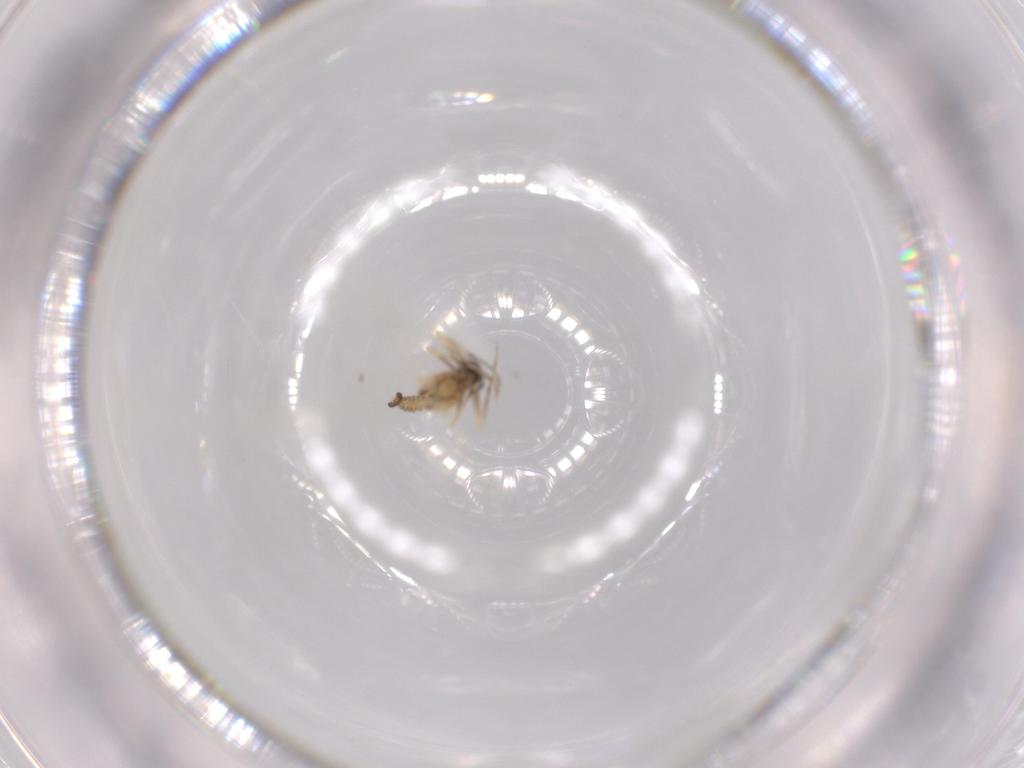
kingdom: Animalia
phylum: Arthropoda
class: Insecta
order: Diptera
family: Ceratopogonidae
